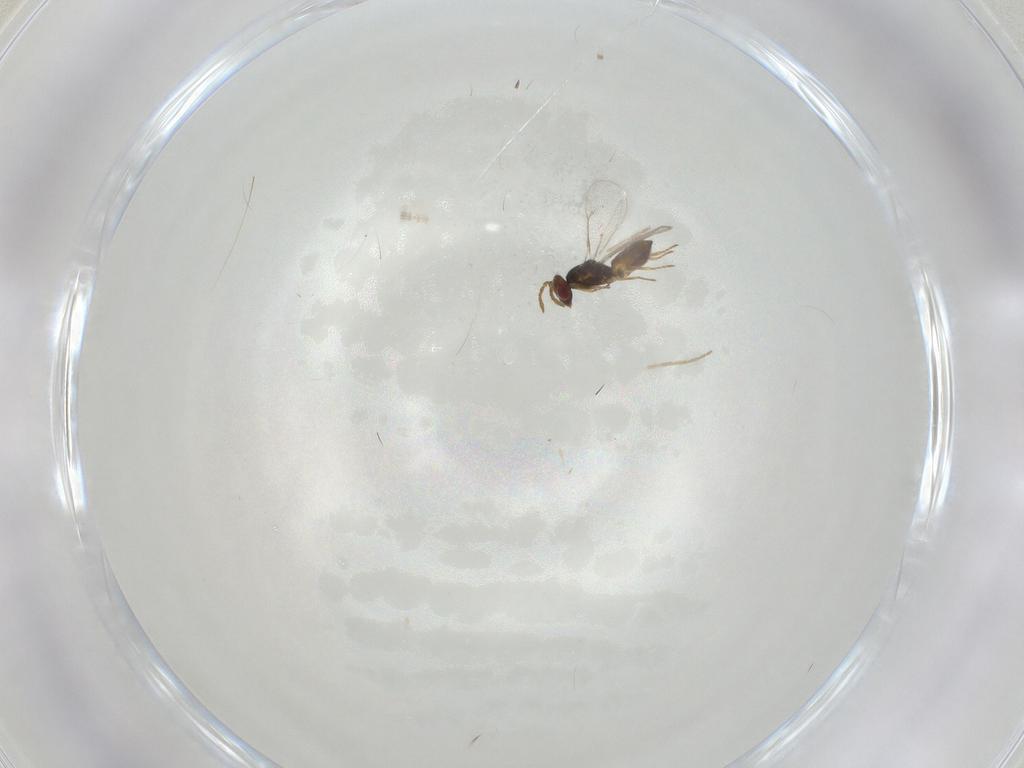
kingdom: Animalia
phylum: Arthropoda
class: Insecta
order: Hymenoptera
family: Eulophidae
